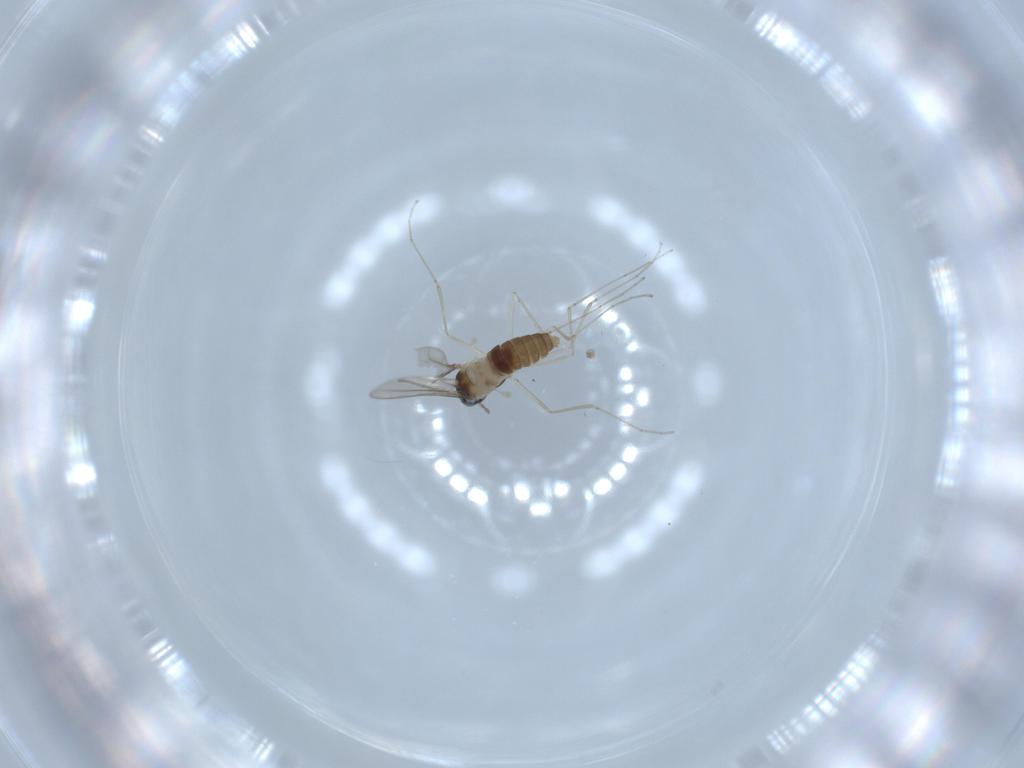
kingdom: Animalia
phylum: Arthropoda
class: Insecta
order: Diptera
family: Cecidomyiidae
